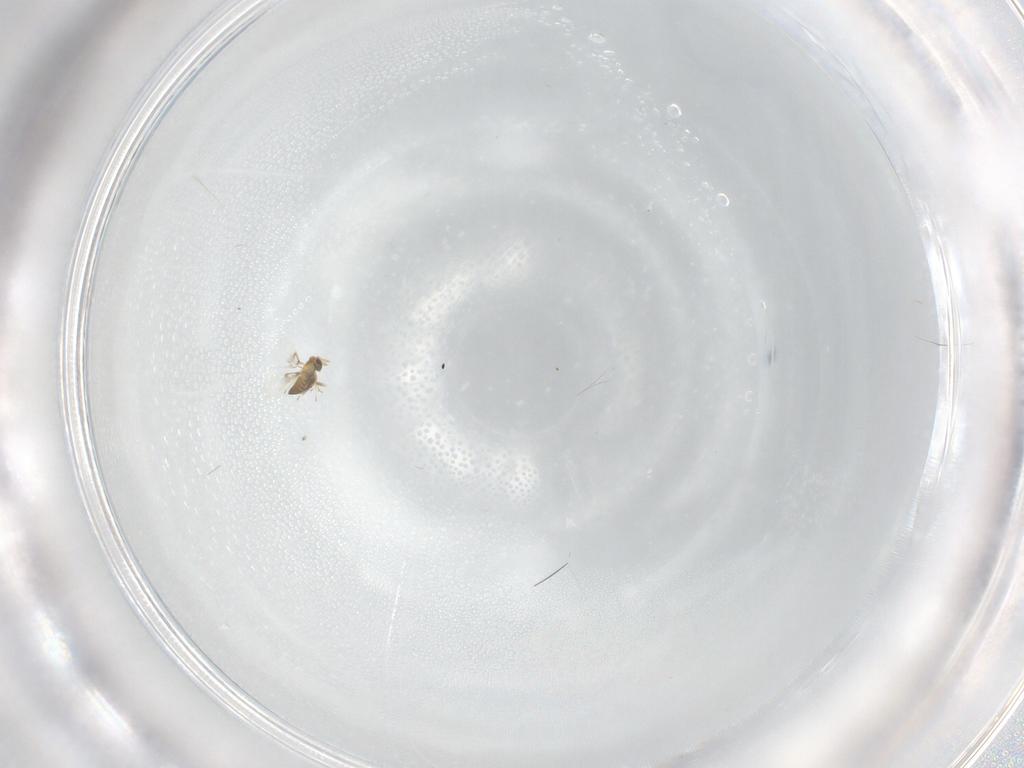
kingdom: Animalia
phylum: Arthropoda
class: Insecta
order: Hymenoptera
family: Trichogrammatidae
